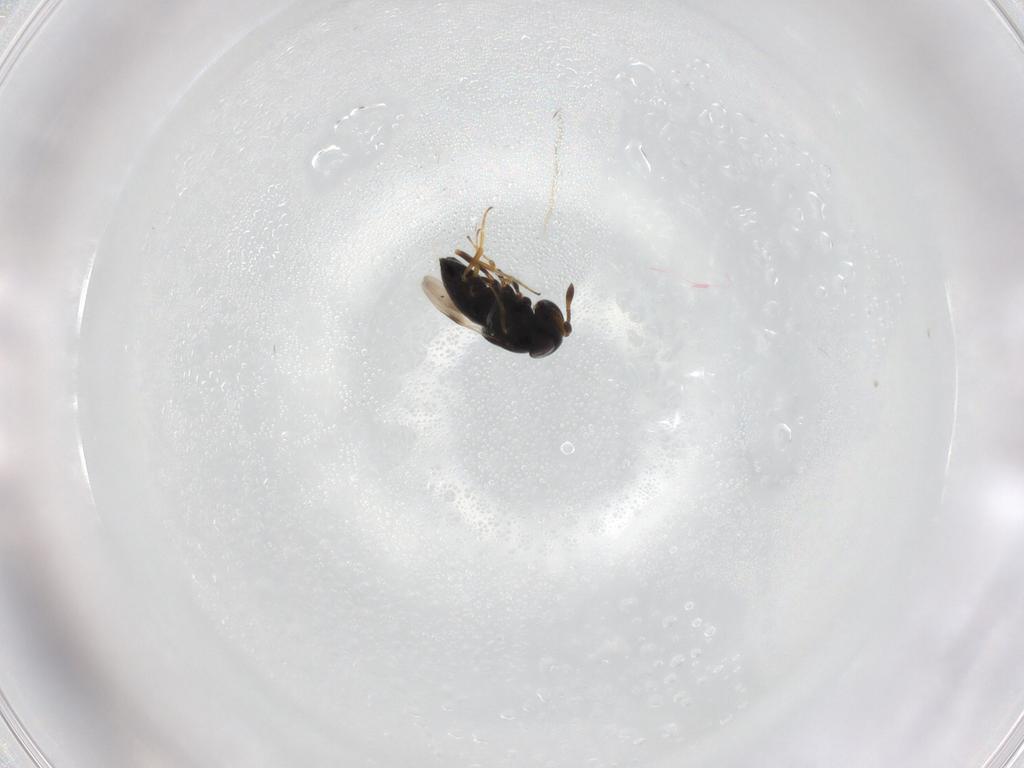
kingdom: Animalia
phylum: Arthropoda
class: Insecta
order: Hymenoptera
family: Scelionidae
